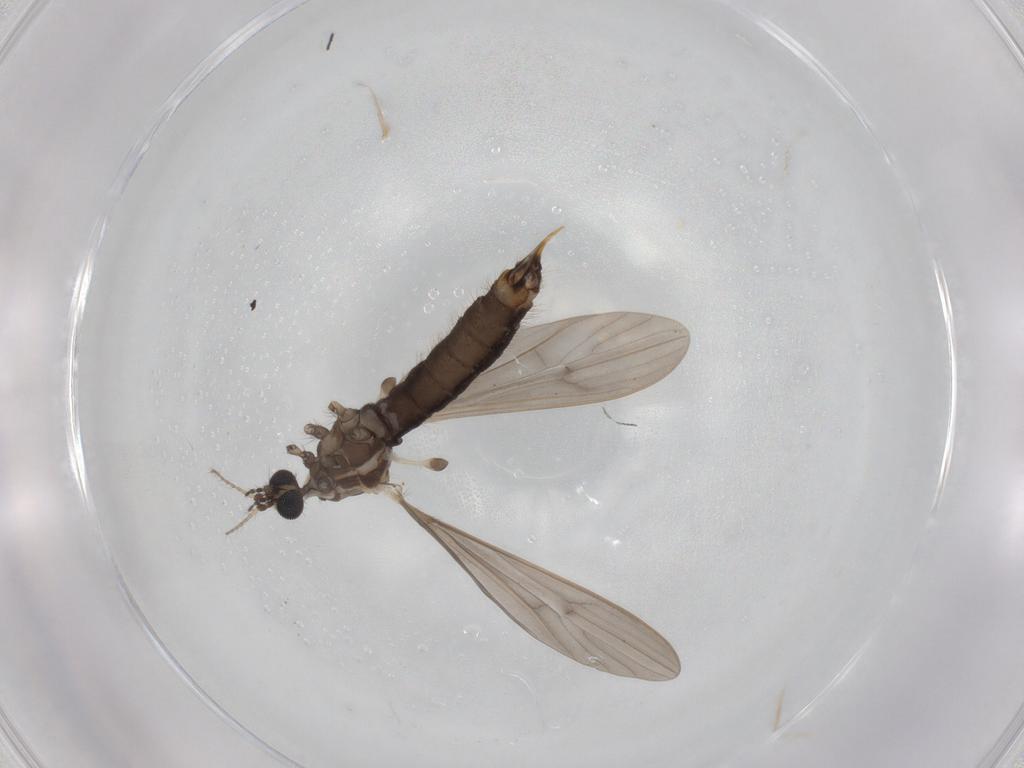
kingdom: Animalia
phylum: Arthropoda
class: Insecta
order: Diptera
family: Limoniidae
